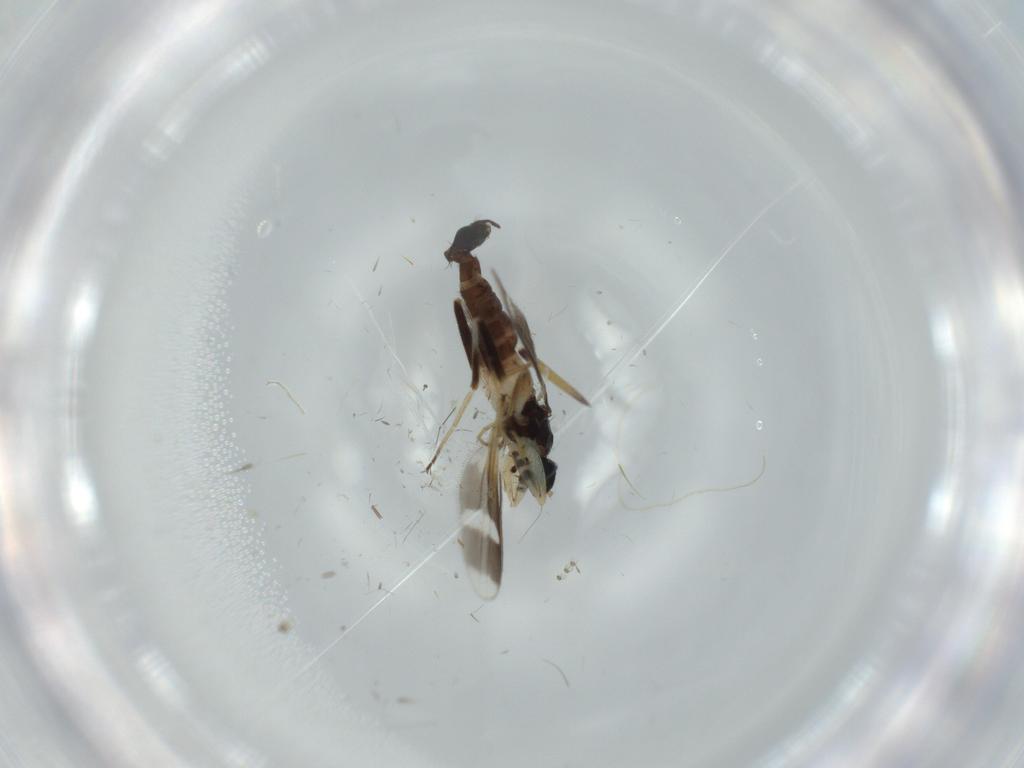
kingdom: Animalia
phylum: Arthropoda
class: Insecta
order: Diptera
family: Hybotidae
